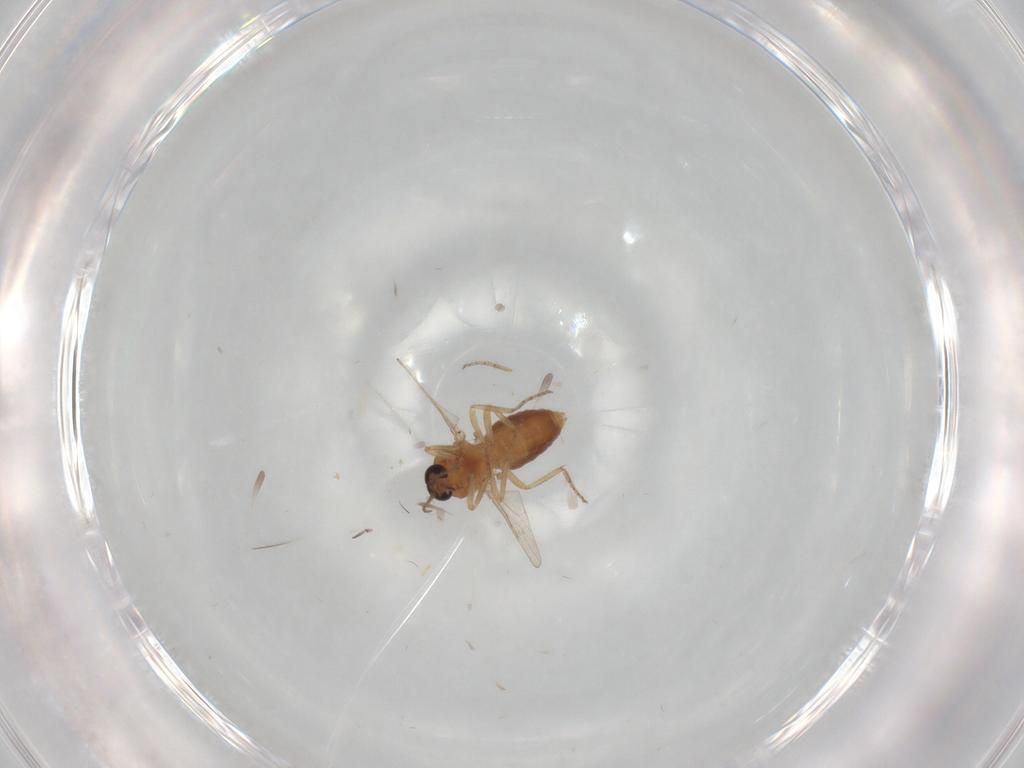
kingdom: Animalia
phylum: Arthropoda
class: Insecta
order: Diptera
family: Ceratopogonidae
